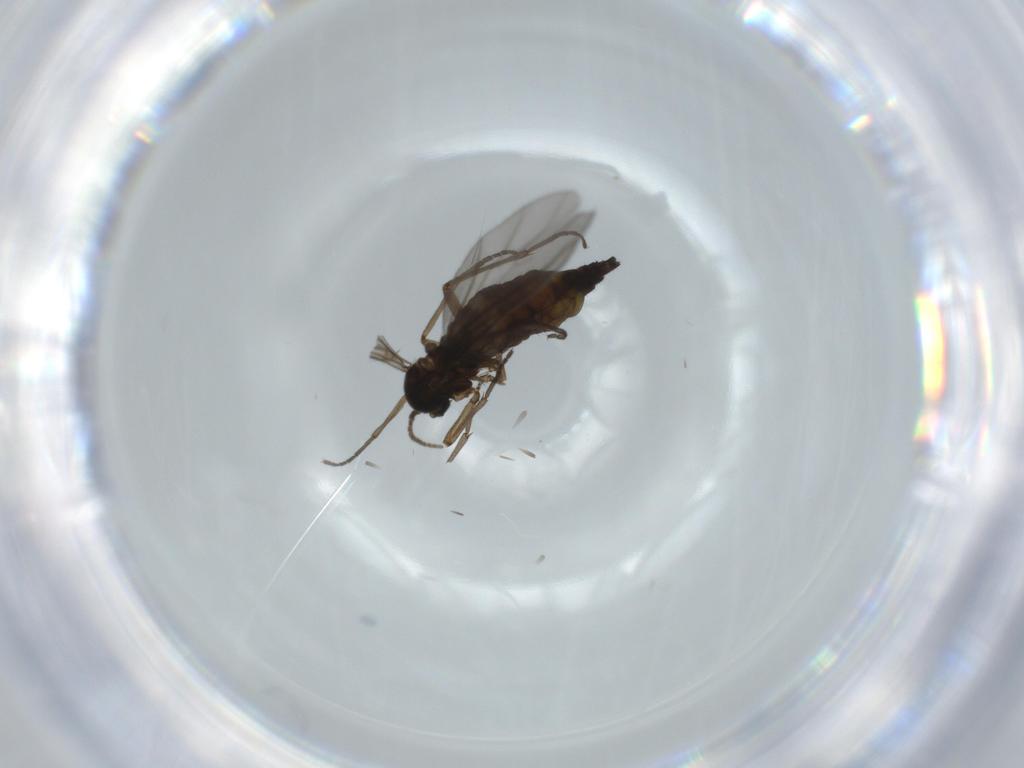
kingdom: Animalia
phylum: Arthropoda
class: Insecta
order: Diptera
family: Sciaridae
